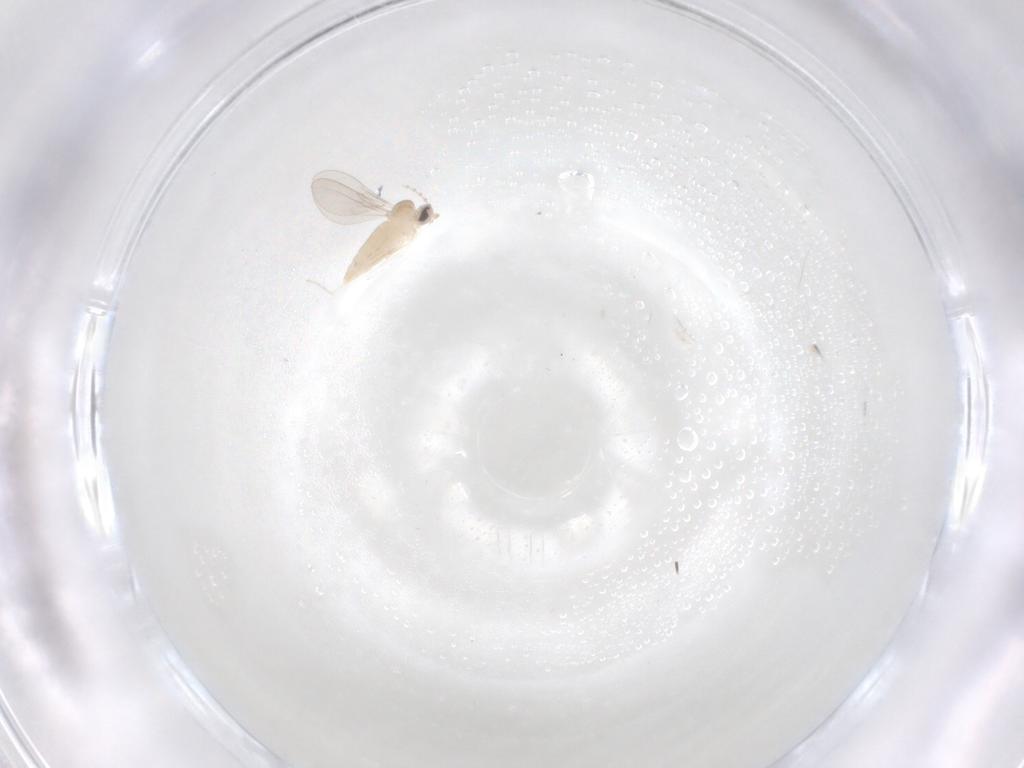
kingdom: Animalia
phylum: Arthropoda
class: Insecta
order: Diptera
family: Cecidomyiidae
